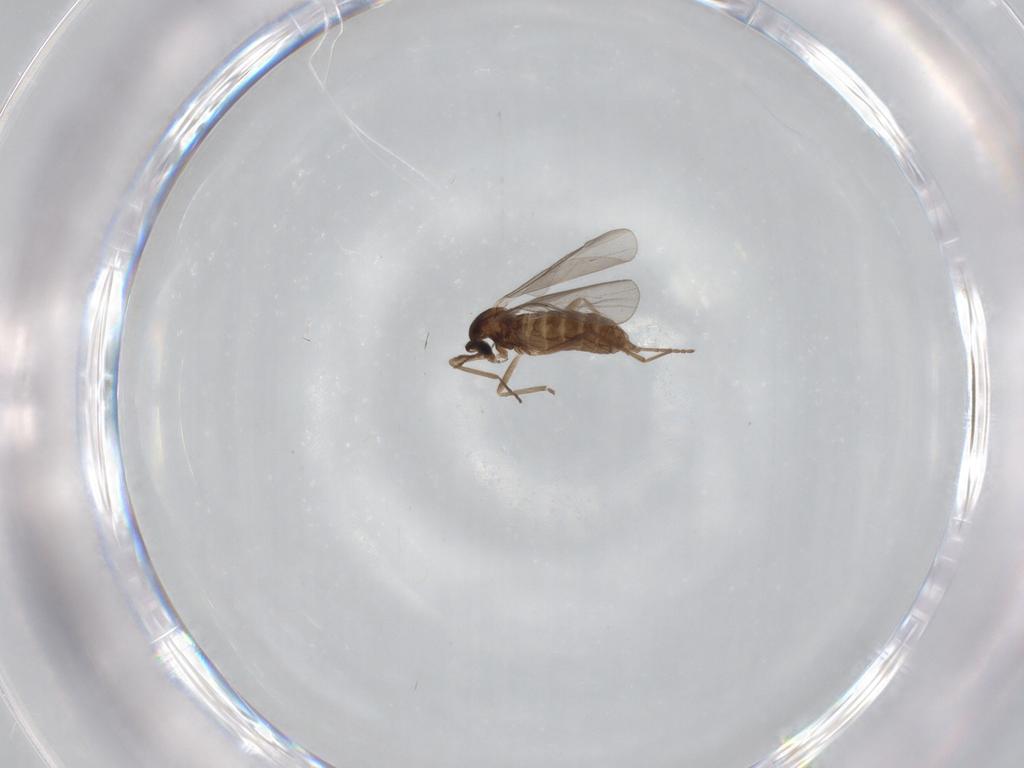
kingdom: Animalia
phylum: Arthropoda
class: Insecta
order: Diptera
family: Cecidomyiidae
